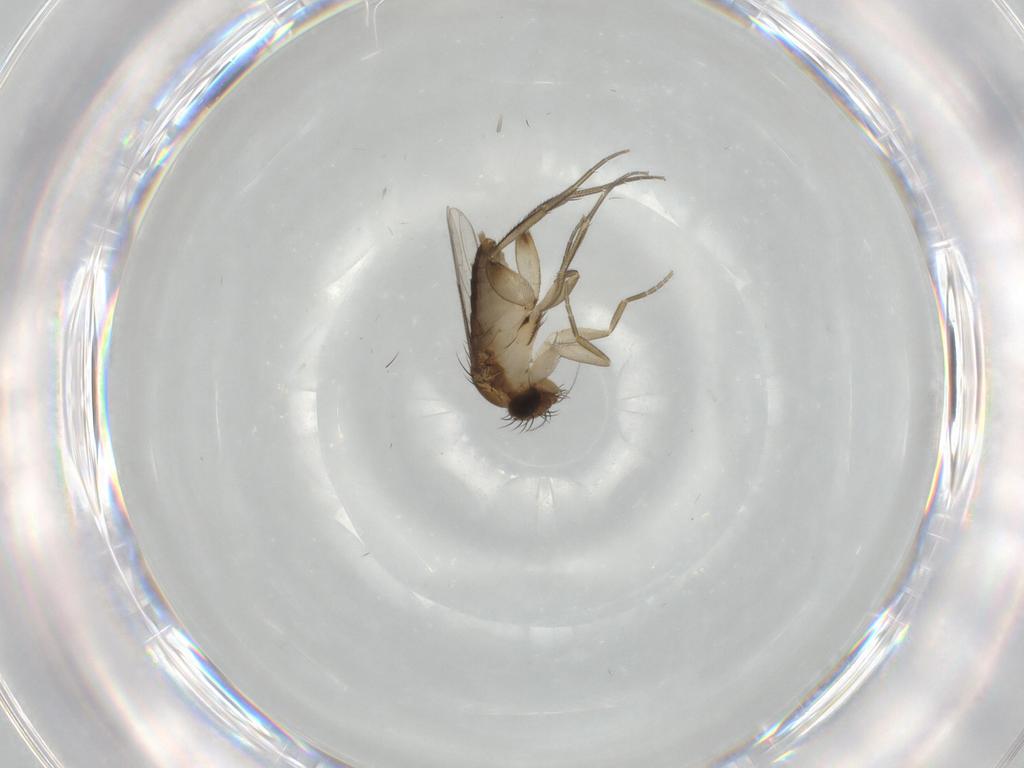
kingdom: Animalia
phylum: Arthropoda
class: Insecta
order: Diptera
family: Phoridae
